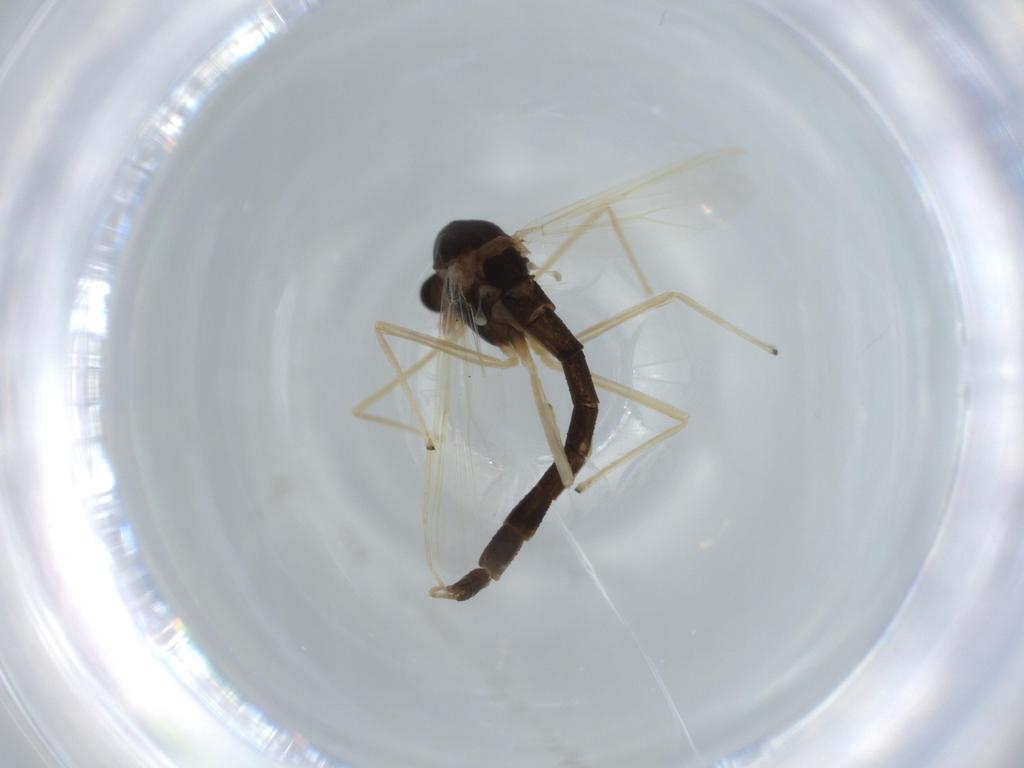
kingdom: Animalia
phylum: Arthropoda
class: Insecta
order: Diptera
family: Chironomidae
